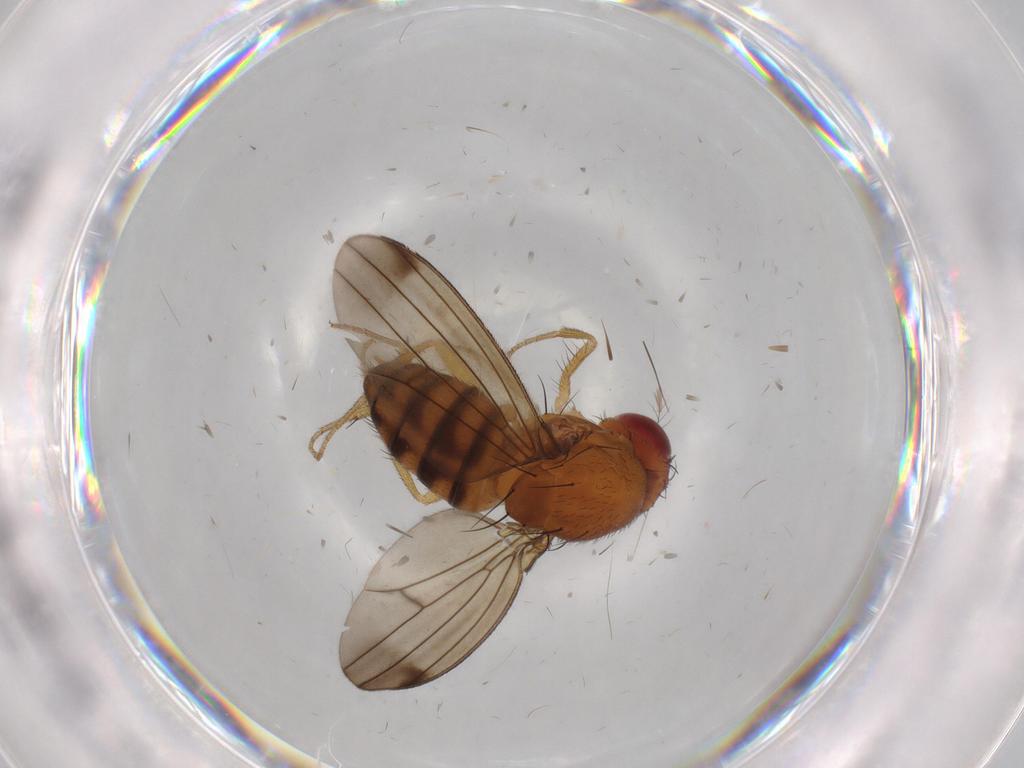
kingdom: Animalia
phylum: Arthropoda
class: Insecta
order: Diptera
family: Drosophilidae
